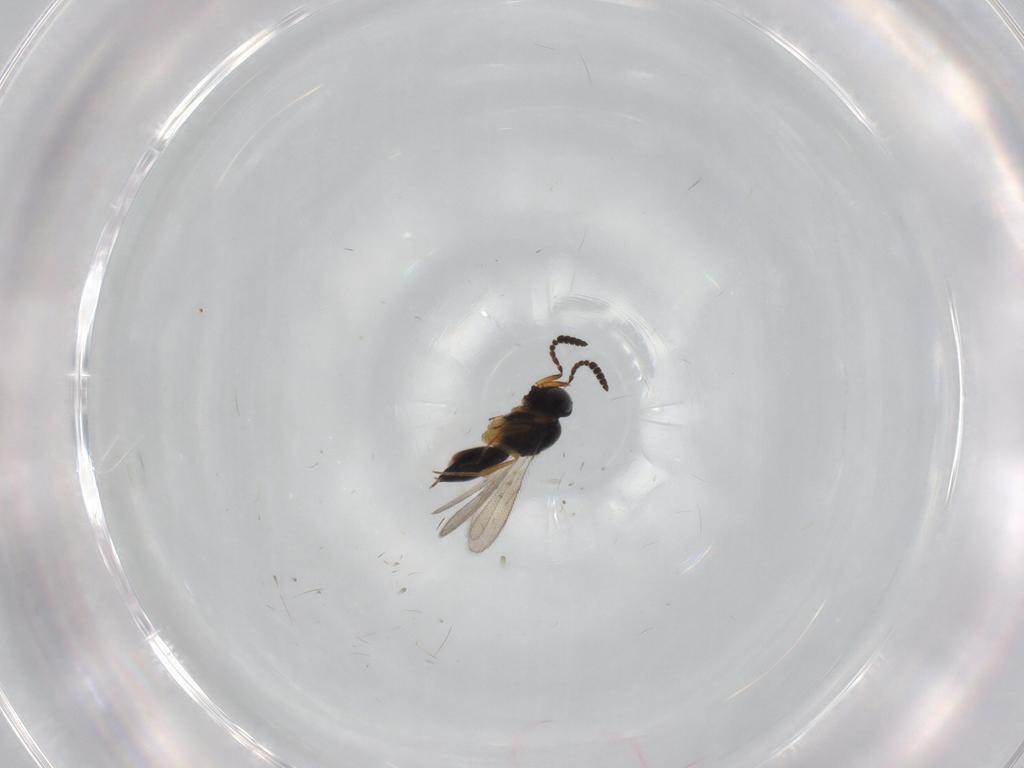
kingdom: Animalia
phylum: Arthropoda
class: Insecta
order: Hymenoptera
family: Scelionidae
